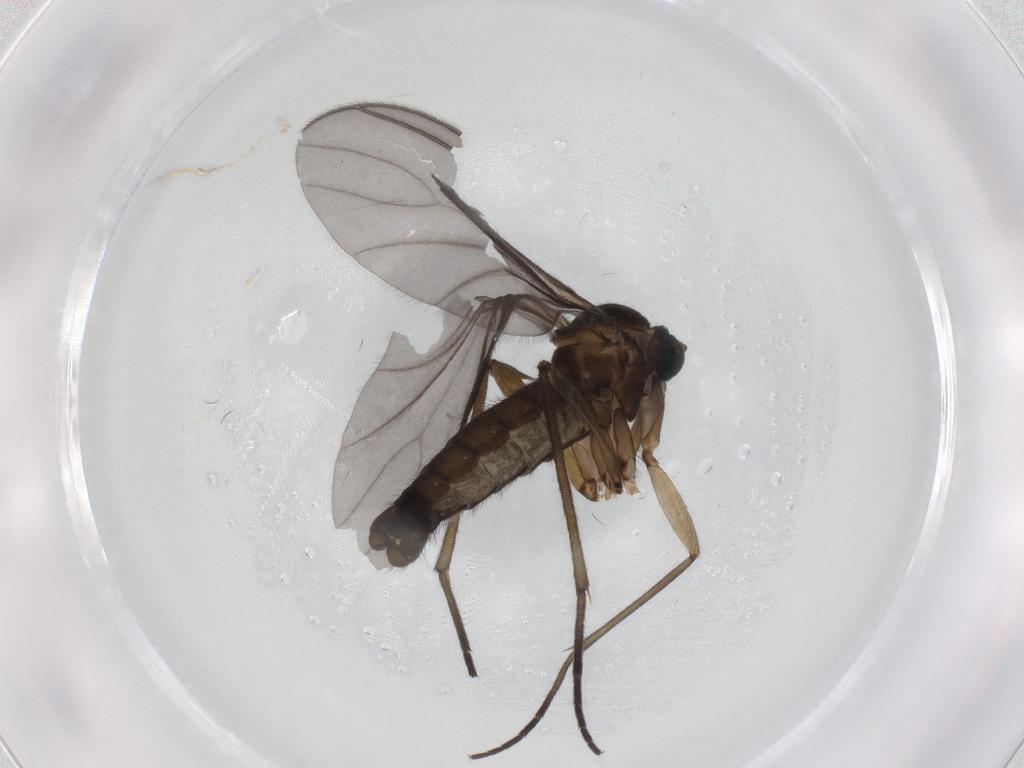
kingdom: Animalia
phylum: Arthropoda
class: Insecta
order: Diptera
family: Sciaridae
